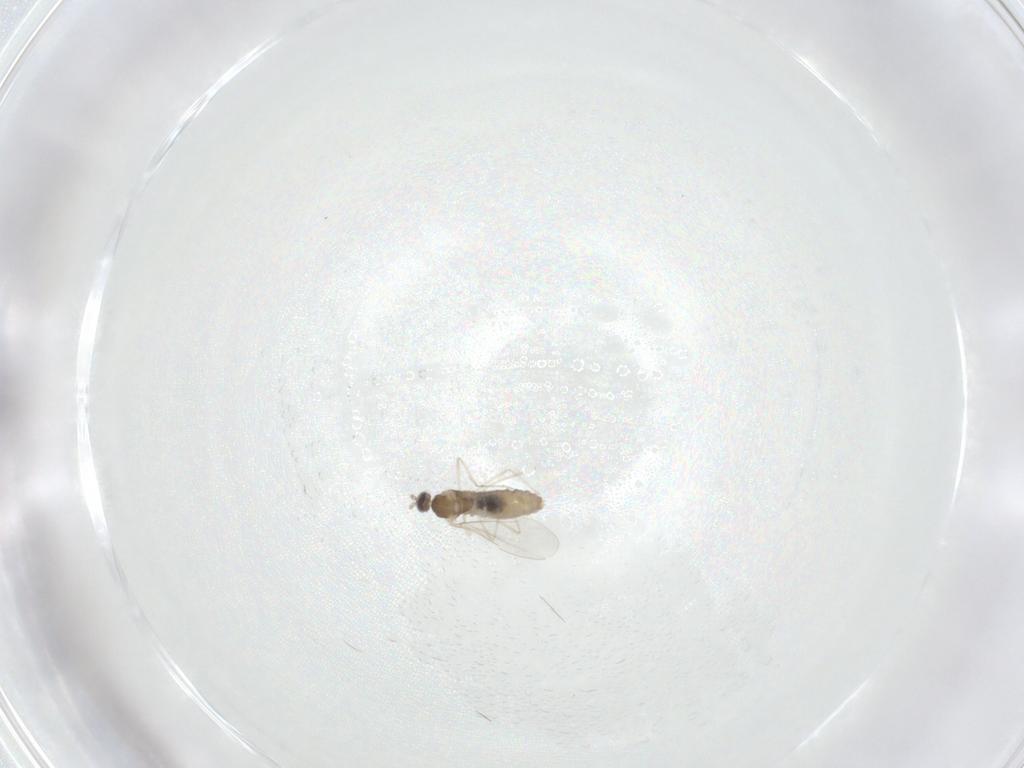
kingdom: Animalia
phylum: Arthropoda
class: Insecta
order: Diptera
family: Cecidomyiidae
